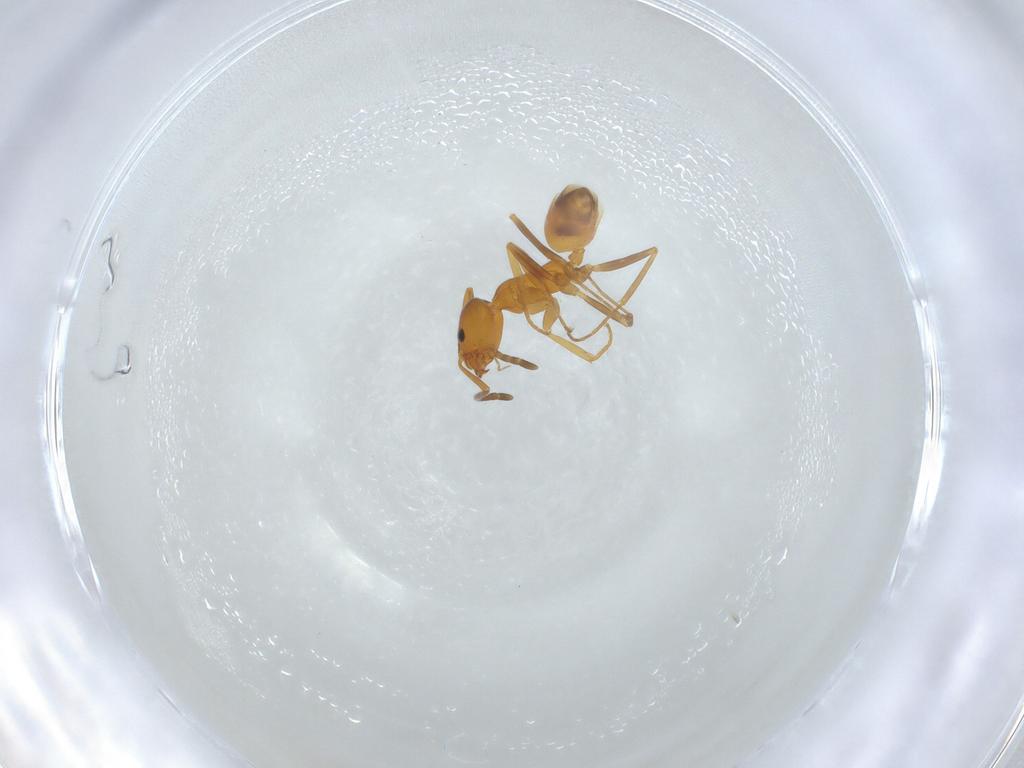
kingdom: Animalia
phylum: Arthropoda
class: Insecta
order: Hymenoptera
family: Formicidae
